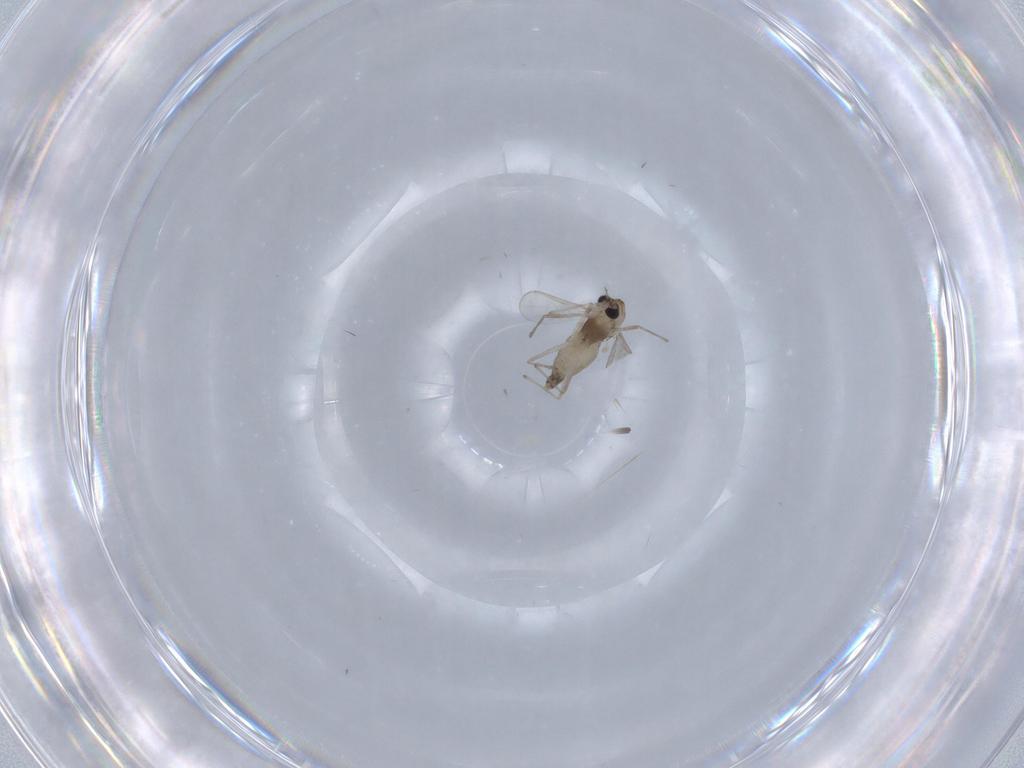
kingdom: Animalia
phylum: Arthropoda
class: Insecta
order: Diptera
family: Chironomidae
